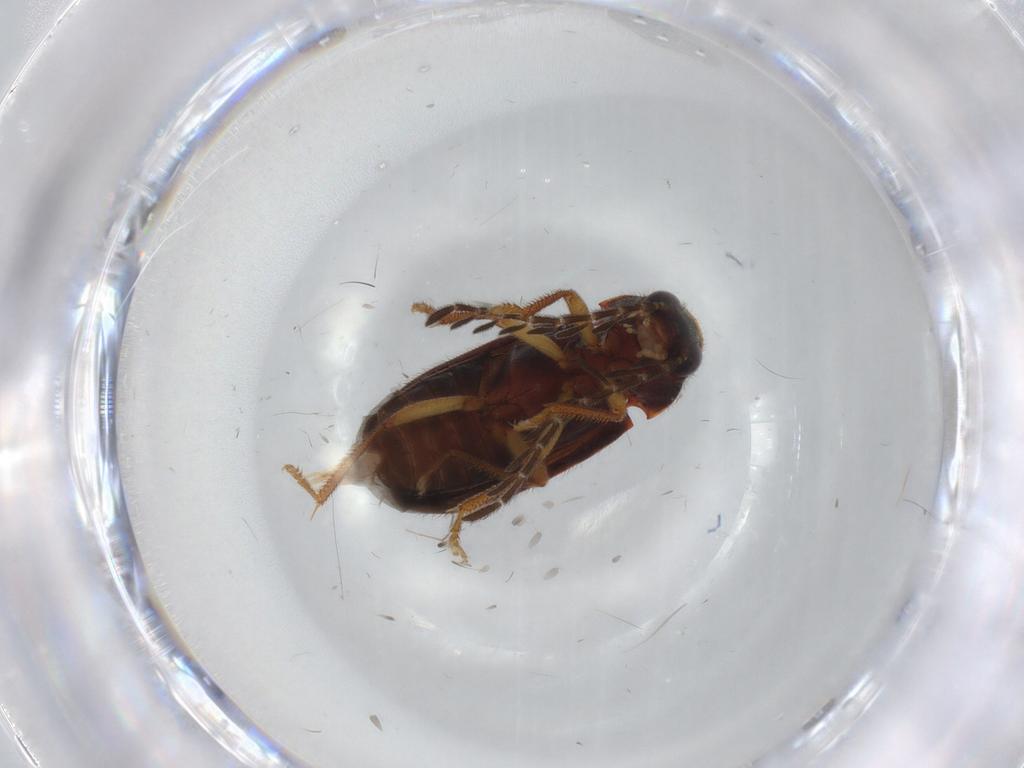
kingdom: Animalia
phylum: Arthropoda
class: Insecta
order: Coleoptera
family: Ptilodactylidae
